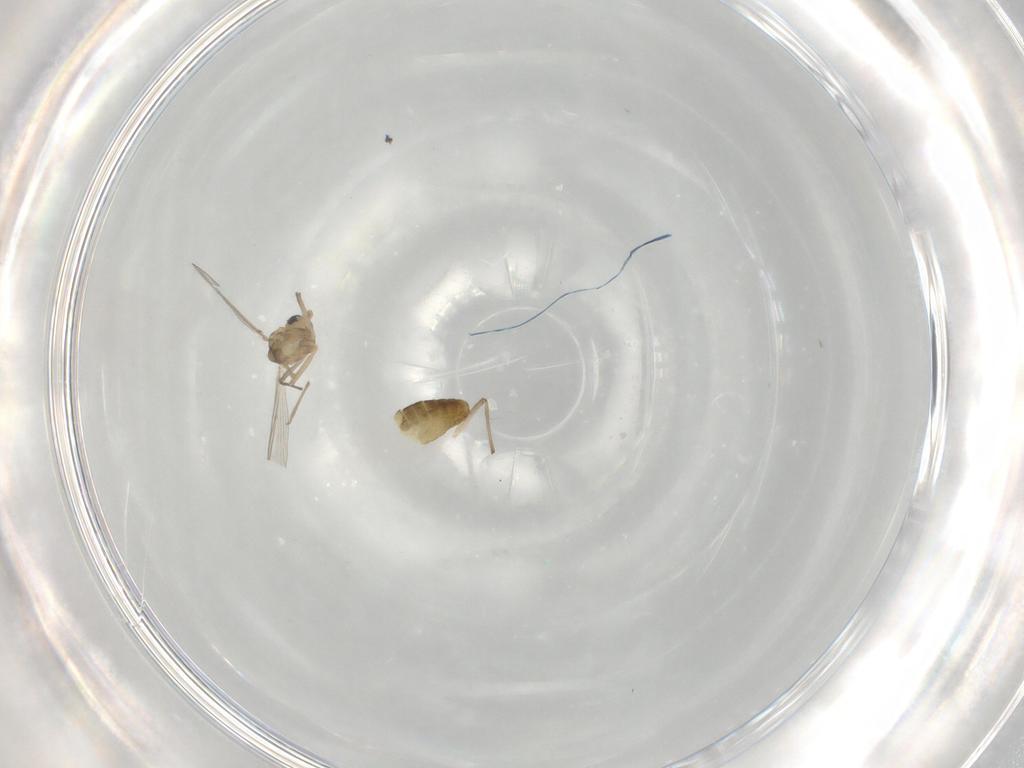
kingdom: Animalia
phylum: Arthropoda
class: Insecta
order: Diptera
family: Chironomidae
